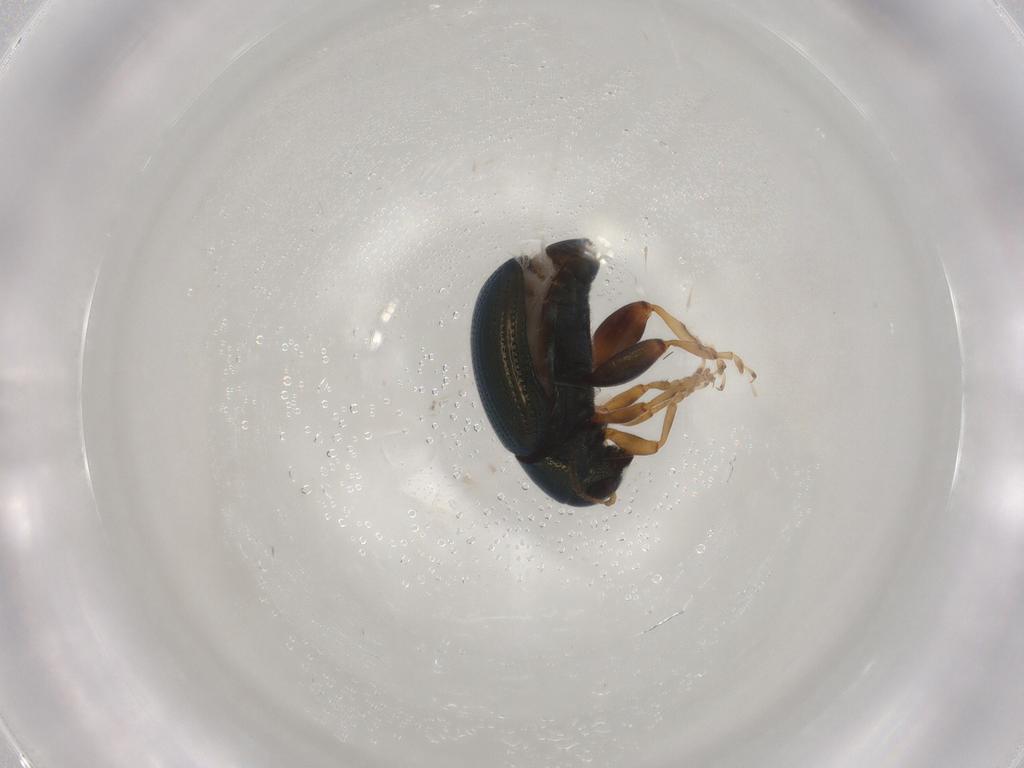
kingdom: Animalia
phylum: Arthropoda
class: Insecta
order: Coleoptera
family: Chrysomelidae
